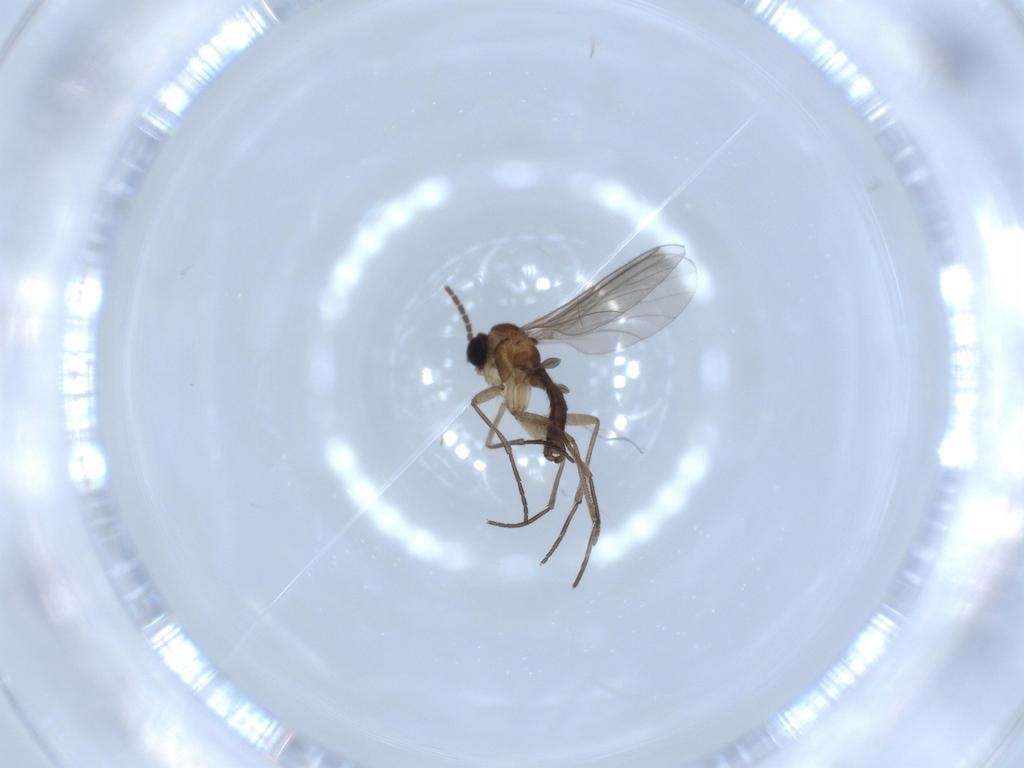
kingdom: Animalia
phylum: Arthropoda
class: Insecta
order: Diptera
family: Sciaridae
